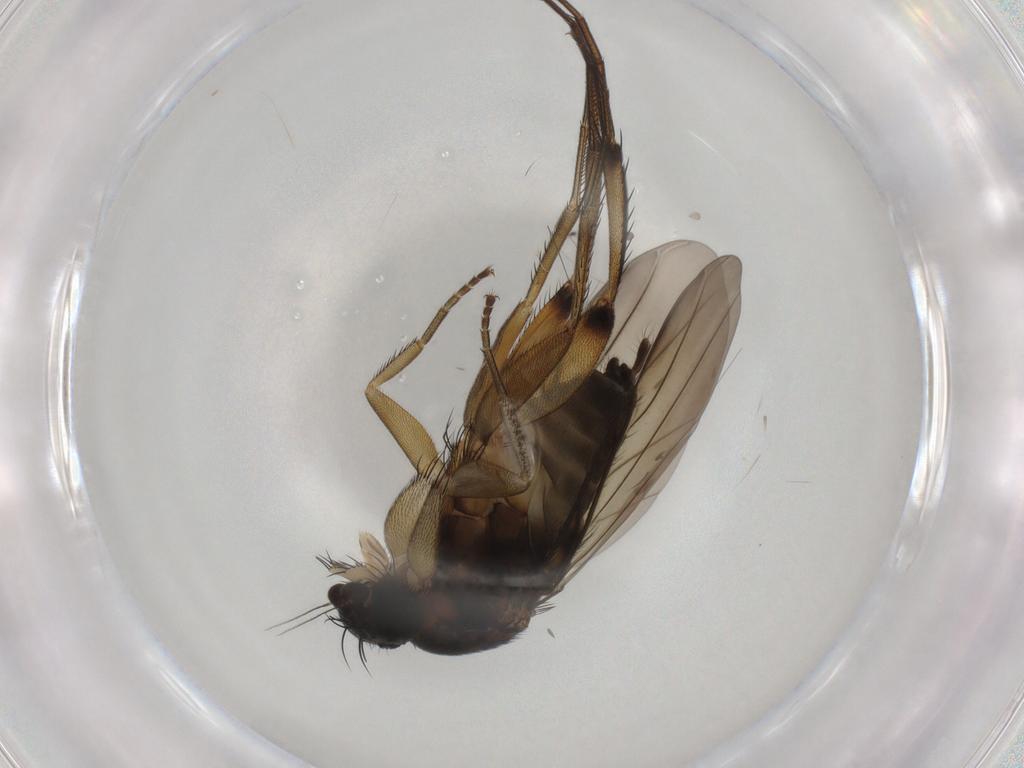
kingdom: Animalia
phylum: Arthropoda
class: Insecta
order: Diptera
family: Phoridae
